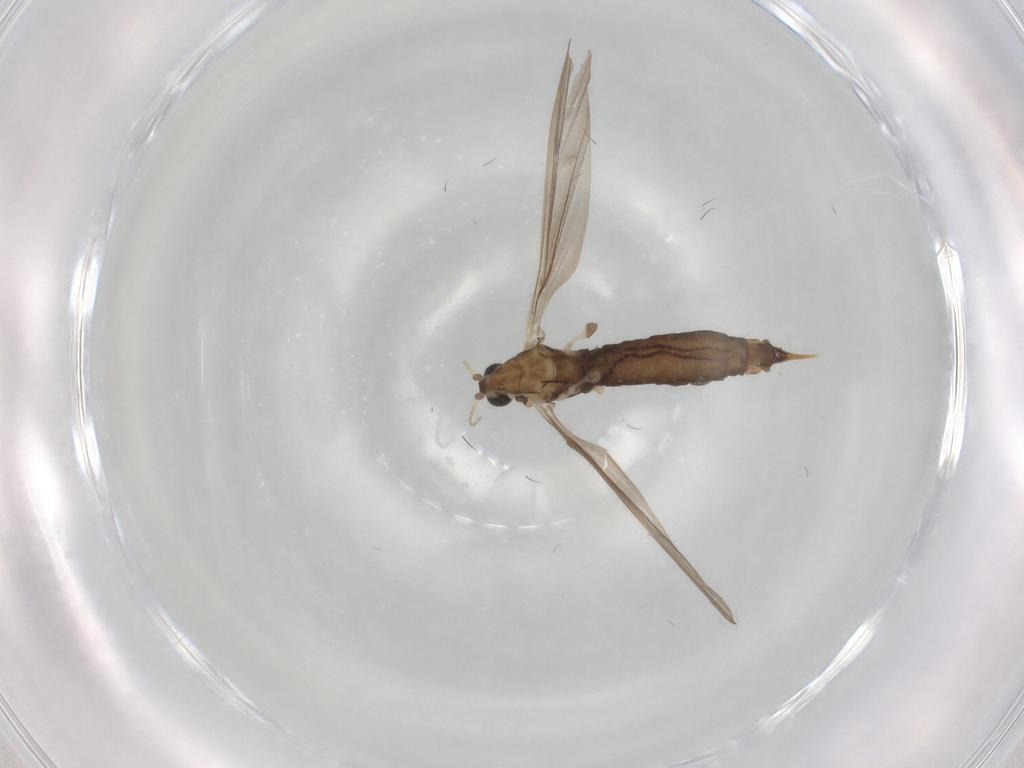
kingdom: Animalia
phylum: Arthropoda
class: Insecta
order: Diptera
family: Limoniidae
